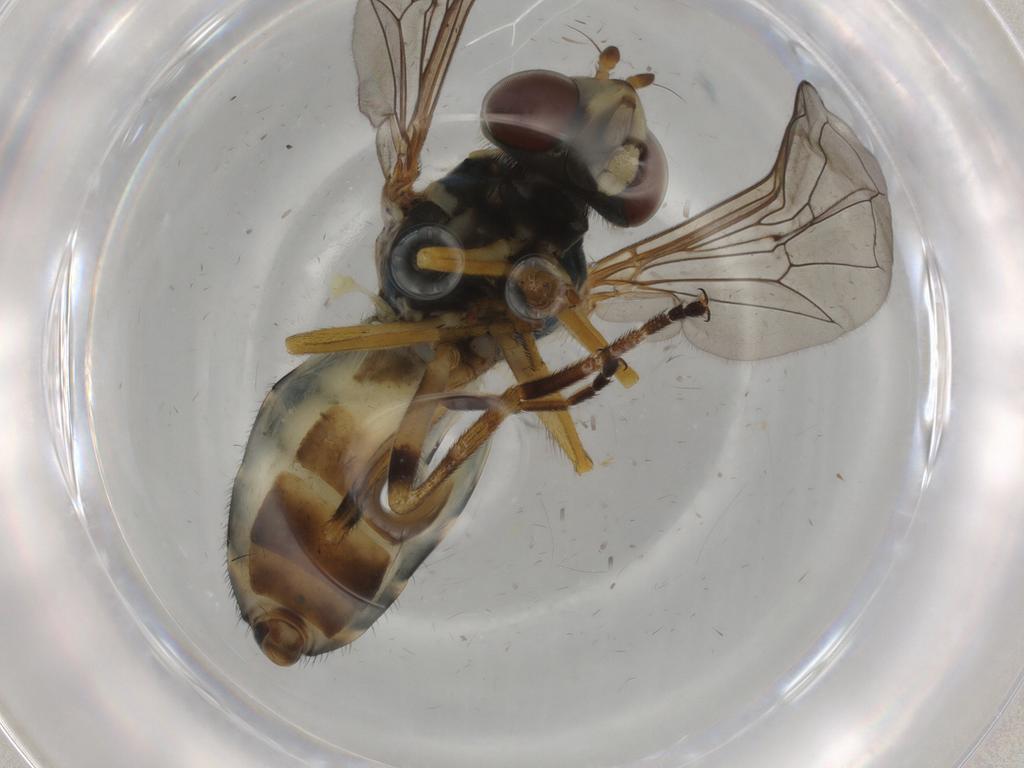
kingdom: Animalia
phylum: Arthropoda
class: Insecta
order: Diptera
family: Syrphidae
